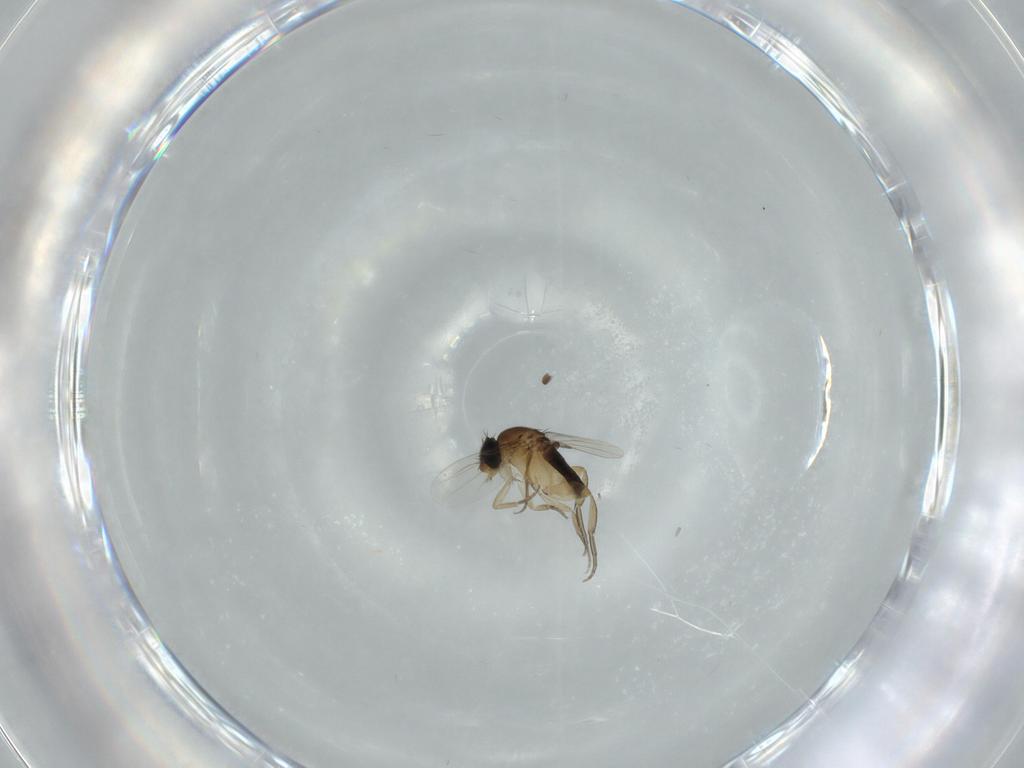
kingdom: Animalia
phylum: Arthropoda
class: Insecta
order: Diptera
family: Phoridae
